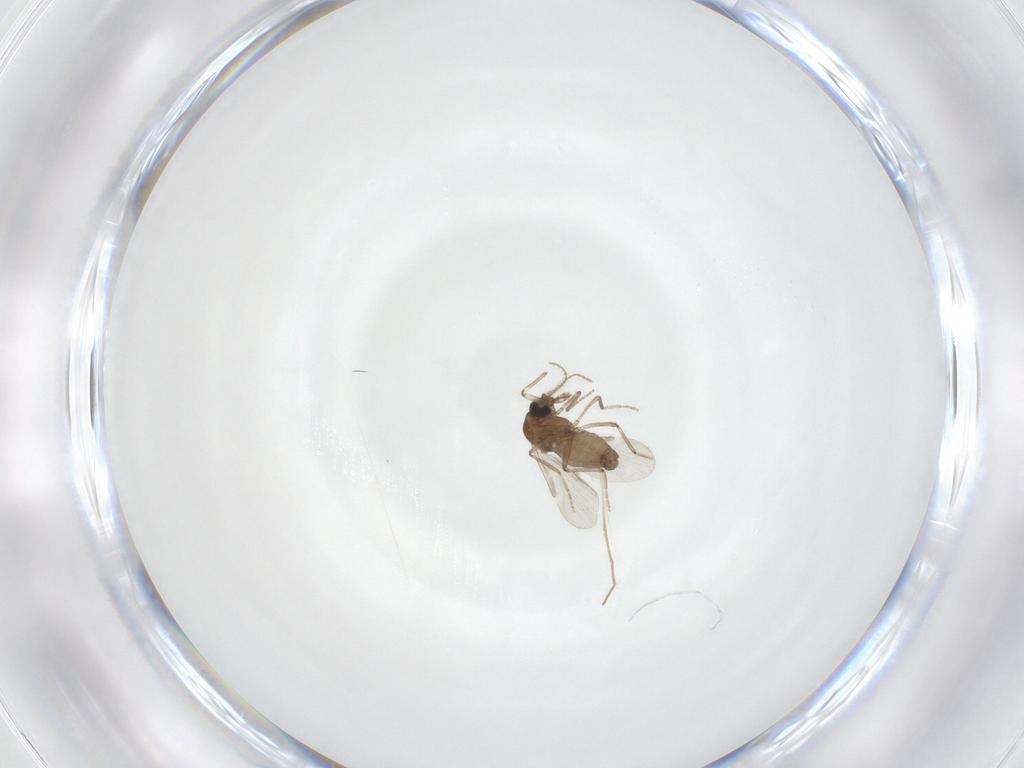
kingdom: Animalia
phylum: Arthropoda
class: Insecta
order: Diptera
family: Ceratopogonidae
